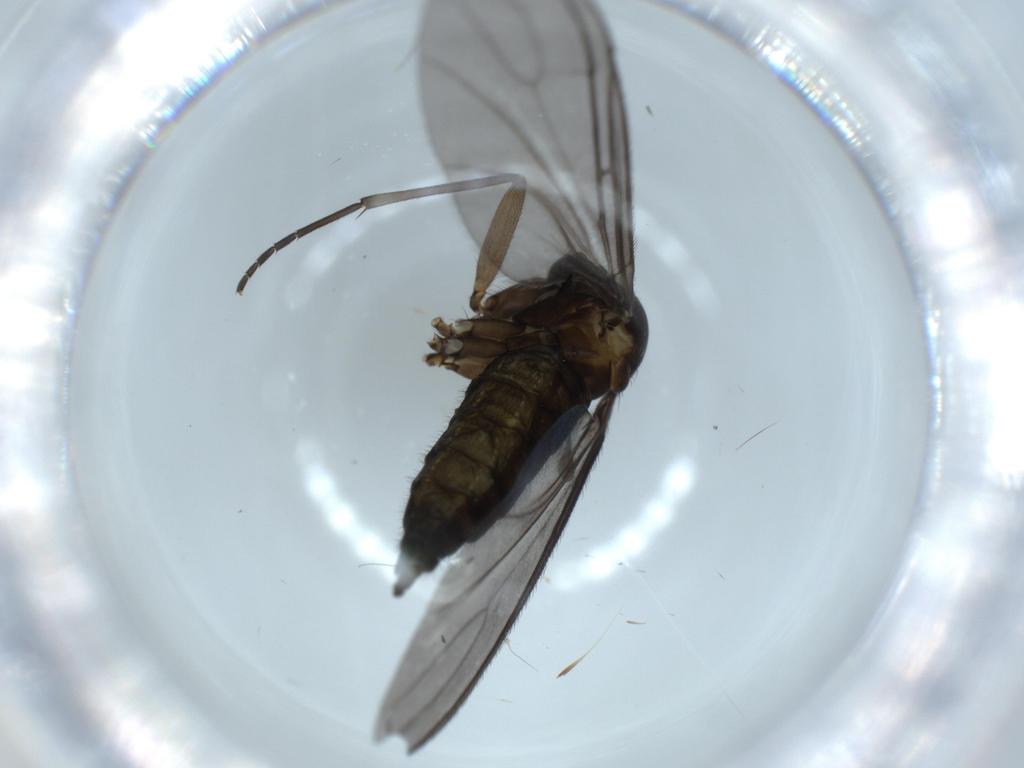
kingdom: Animalia
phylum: Arthropoda
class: Insecta
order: Diptera
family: Sciaridae
